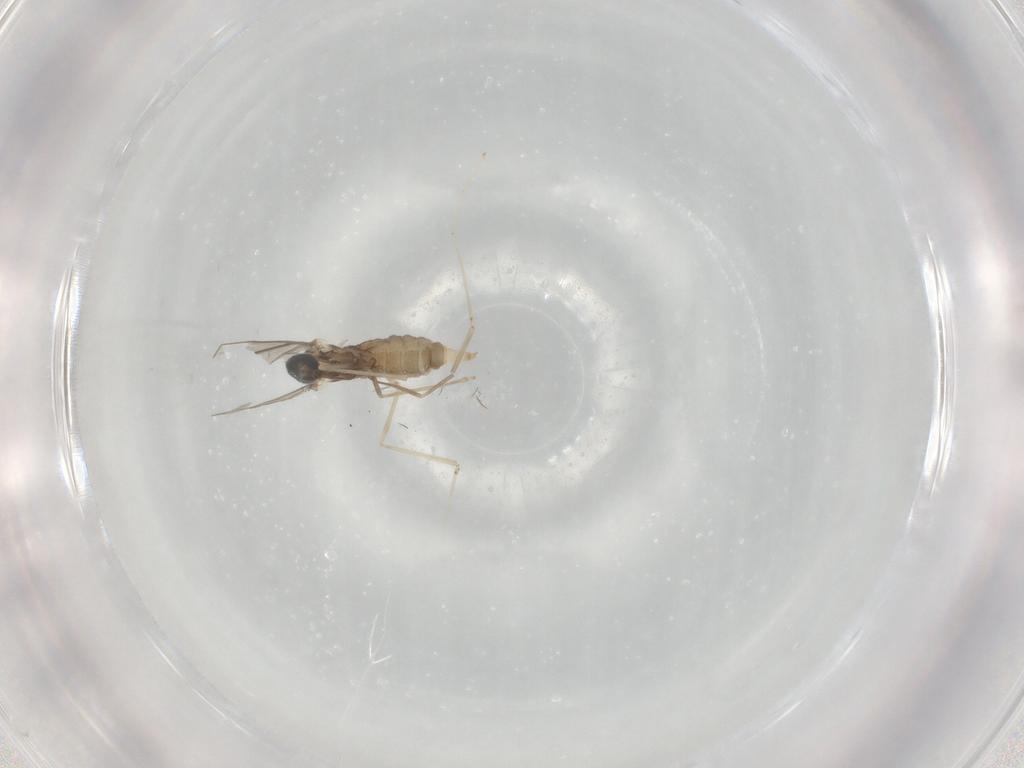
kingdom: Animalia
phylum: Arthropoda
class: Insecta
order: Diptera
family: Cecidomyiidae
